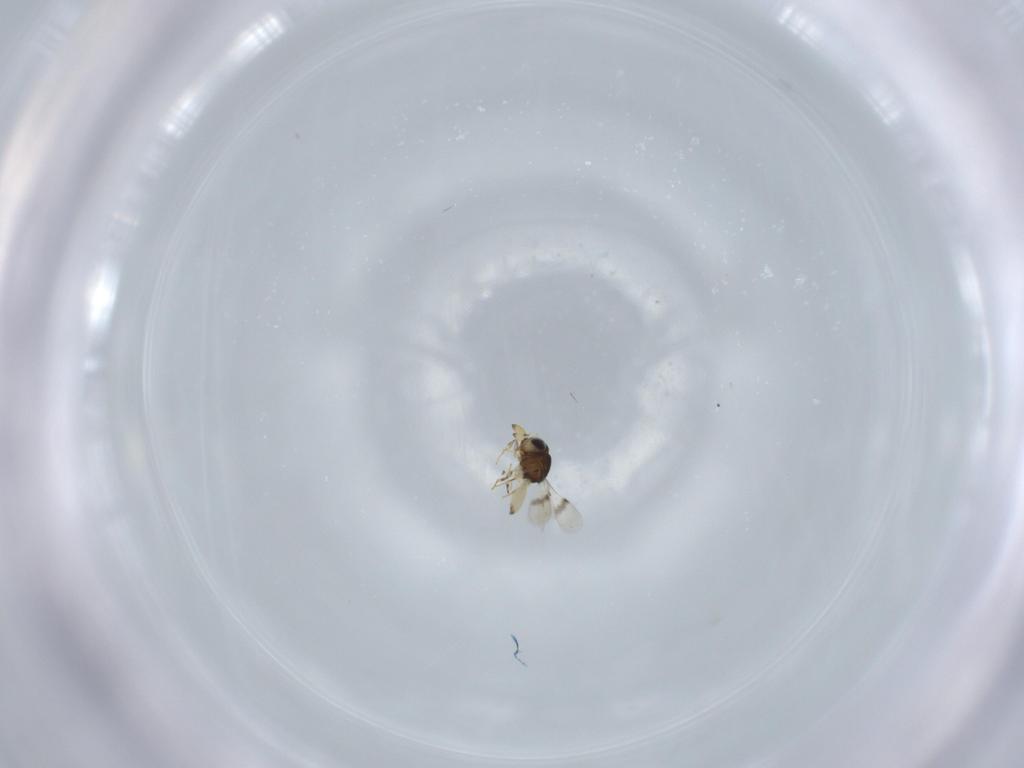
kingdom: Animalia
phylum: Arthropoda
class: Insecta
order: Hymenoptera
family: Scelionidae
